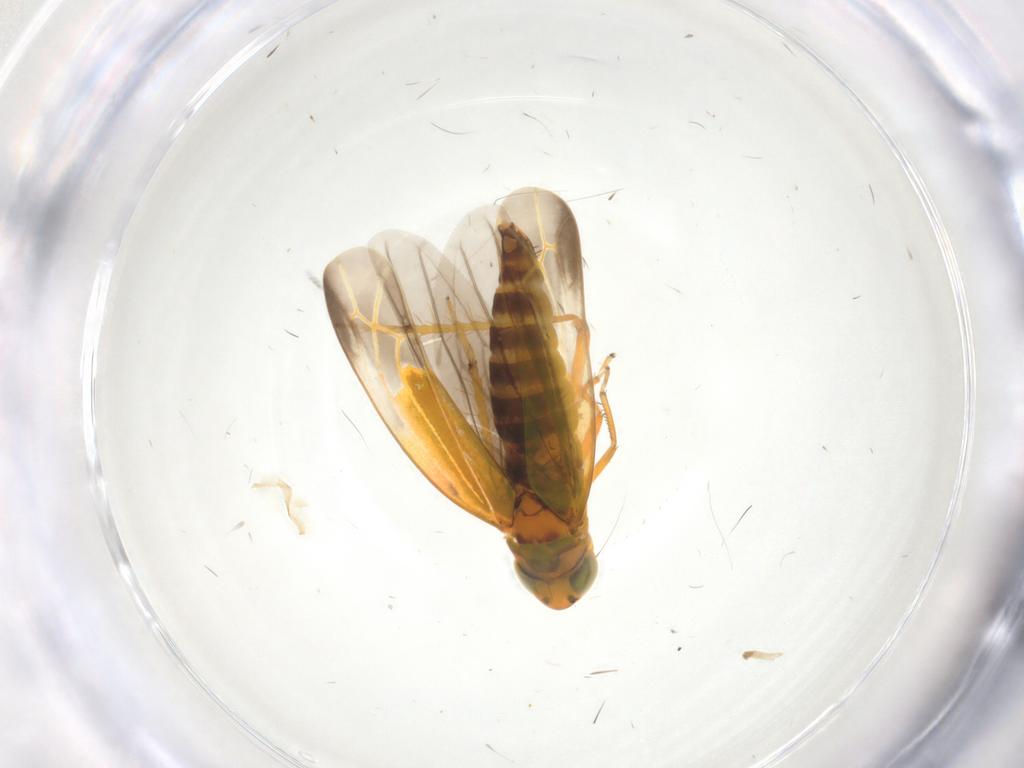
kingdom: Animalia
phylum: Arthropoda
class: Insecta
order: Hemiptera
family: Cicadellidae
